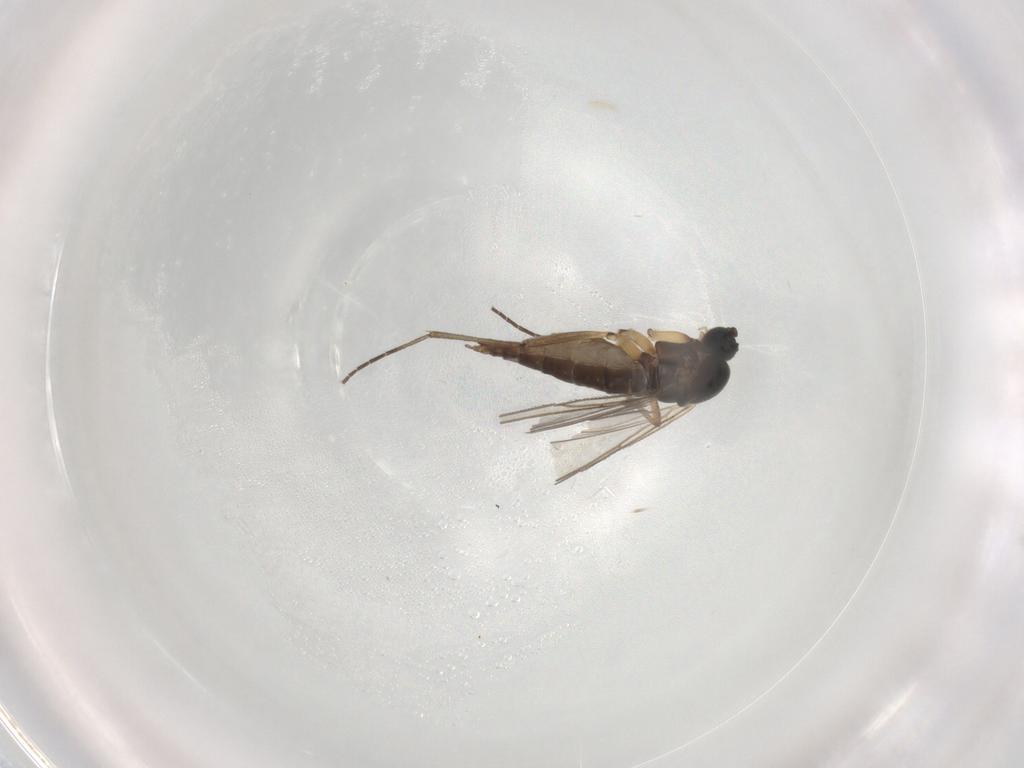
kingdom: Animalia
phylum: Arthropoda
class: Insecta
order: Diptera
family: Chironomidae
